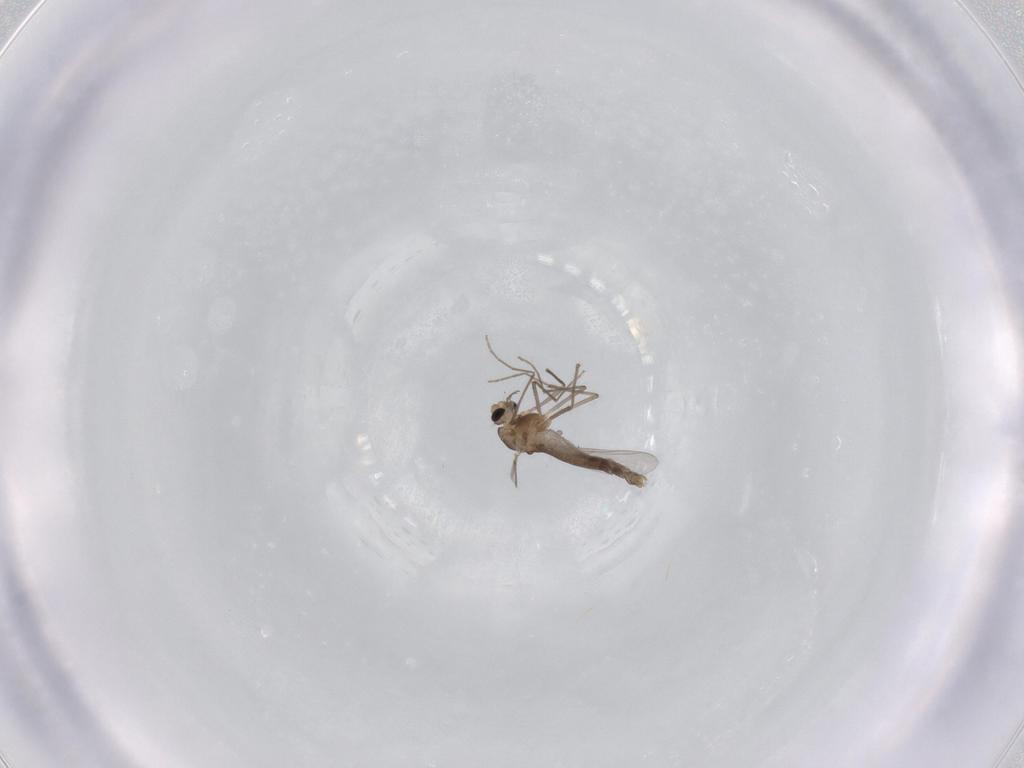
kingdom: Animalia
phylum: Arthropoda
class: Insecta
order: Diptera
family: Chironomidae
